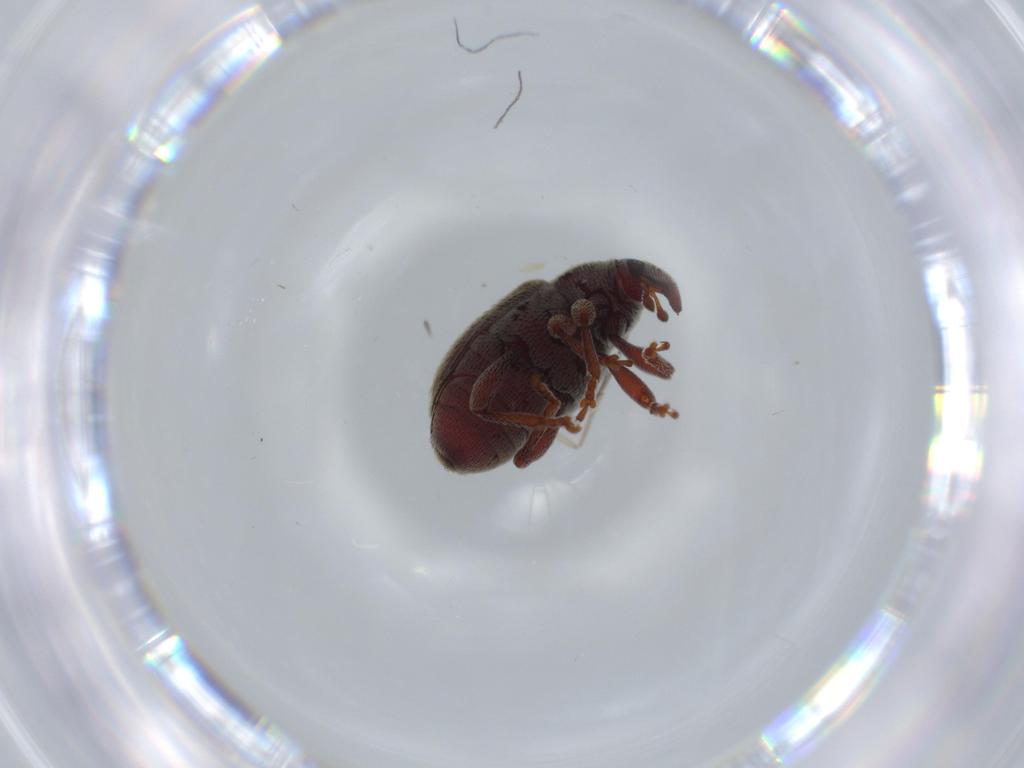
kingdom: Animalia
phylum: Arthropoda
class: Insecta
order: Coleoptera
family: Curculionidae
